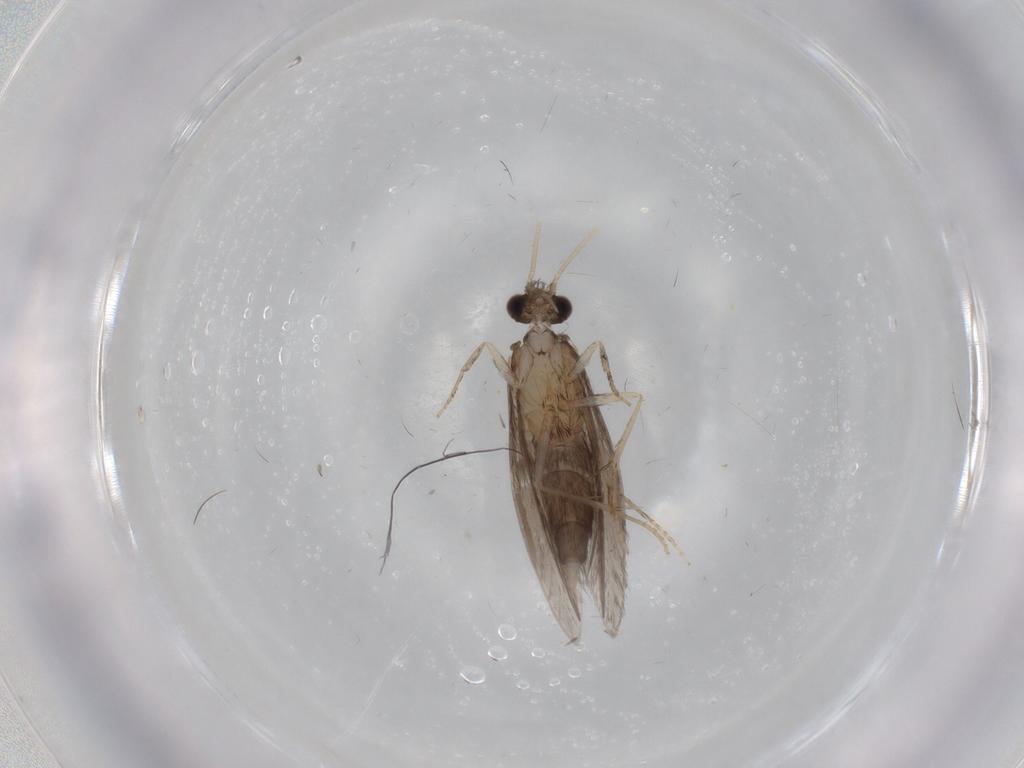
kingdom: Animalia
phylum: Arthropoda
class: Insecta
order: Trichoptera
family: Hydroptilidae
